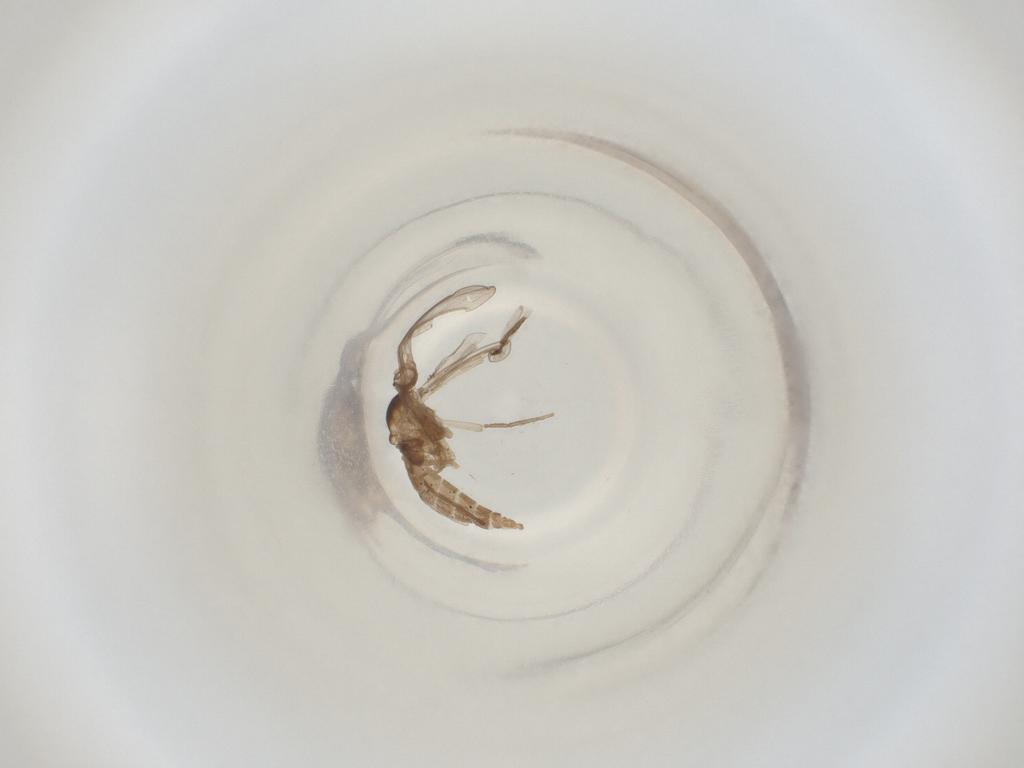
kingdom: Animalia
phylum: Arthropoda
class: Insecta
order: Diptera
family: Cecidomyiidae
